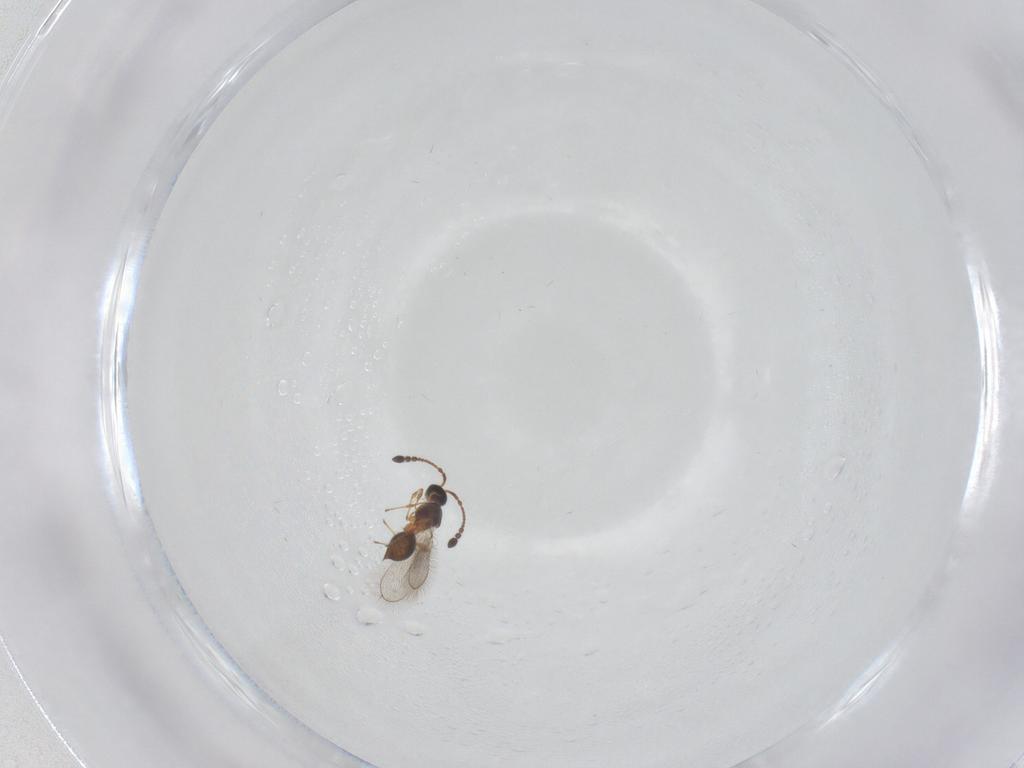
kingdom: Animalia
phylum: Arthropoda
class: Insecta
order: Hymenoptera
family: Diapriidae
